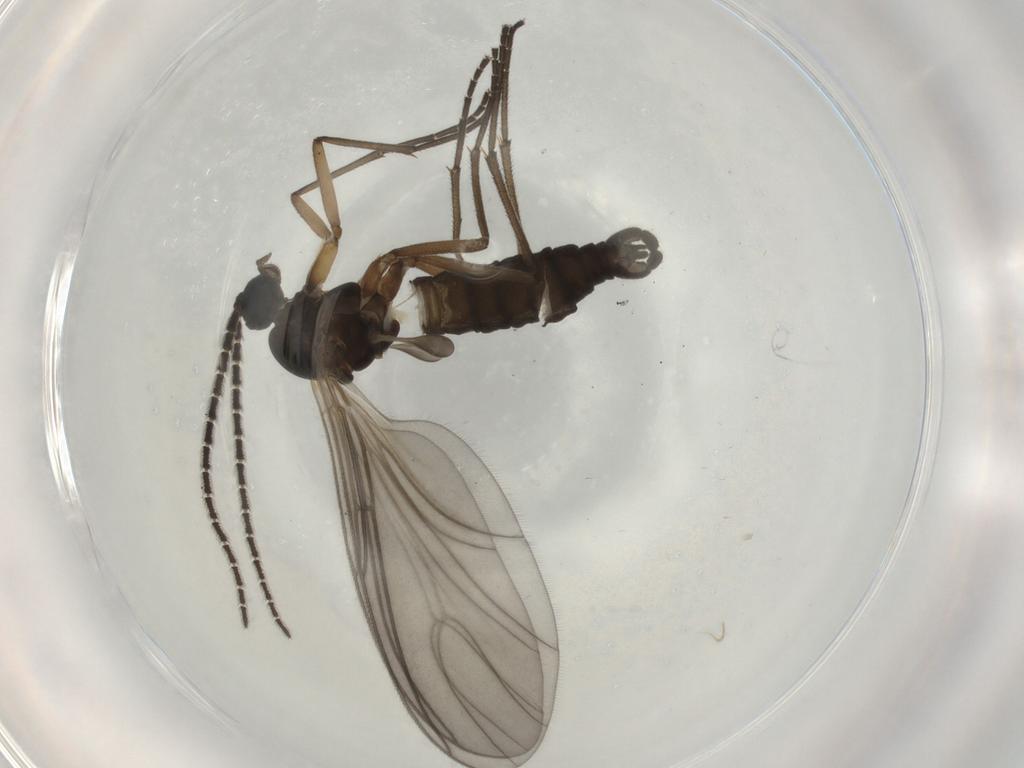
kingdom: Animalia
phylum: Arthropoda
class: Insecta
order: Diptera
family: Sciaridae
